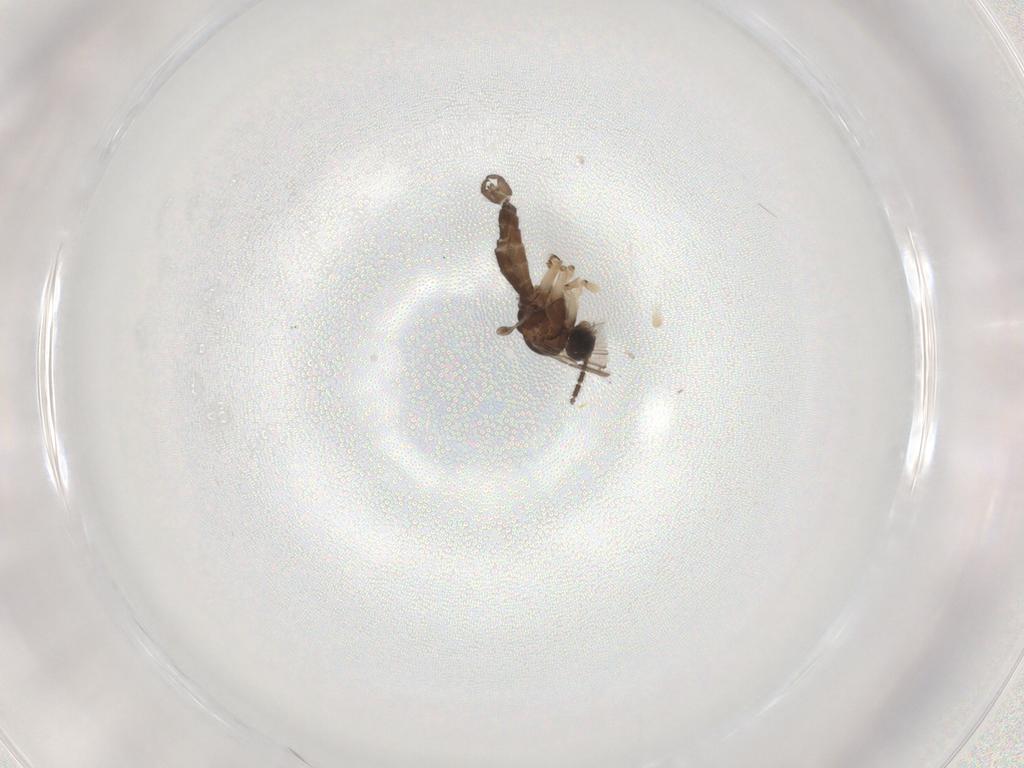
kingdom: Animalia
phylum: Arthropoda
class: Insecta
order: Diptera
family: Sciaridae
